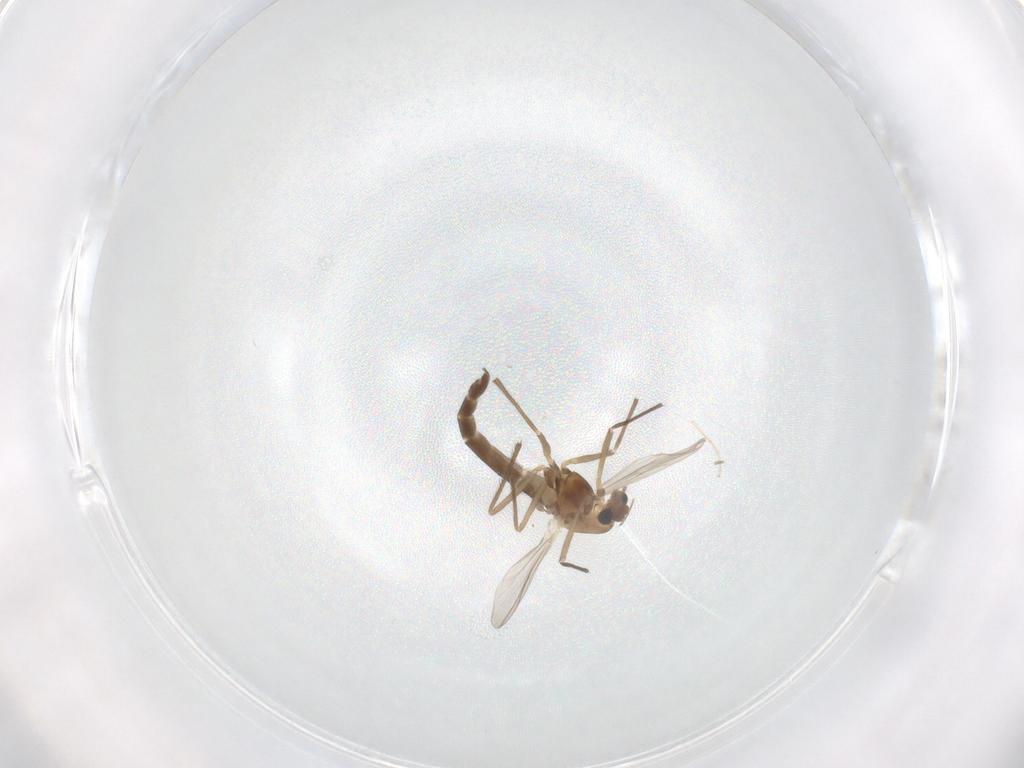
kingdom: Animalia
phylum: Arthropoda
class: Insecta
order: Diptera
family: Chironomidae
